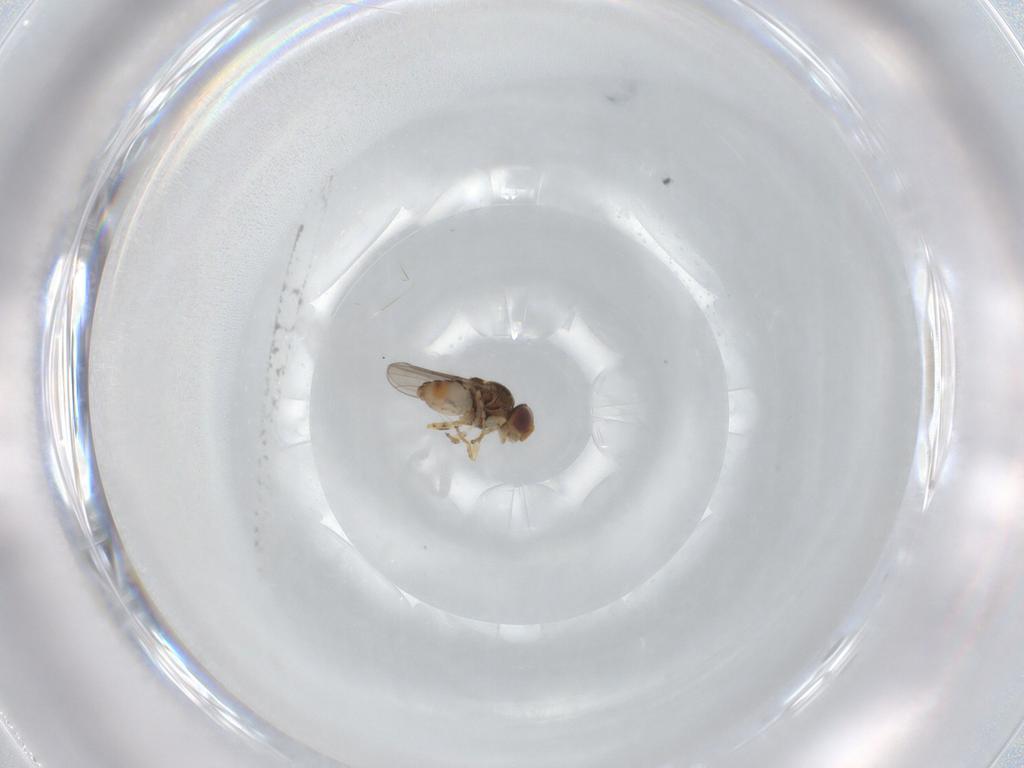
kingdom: Animalia
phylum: Arthropoda
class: Insecta
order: Diptera
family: Chloropidae
